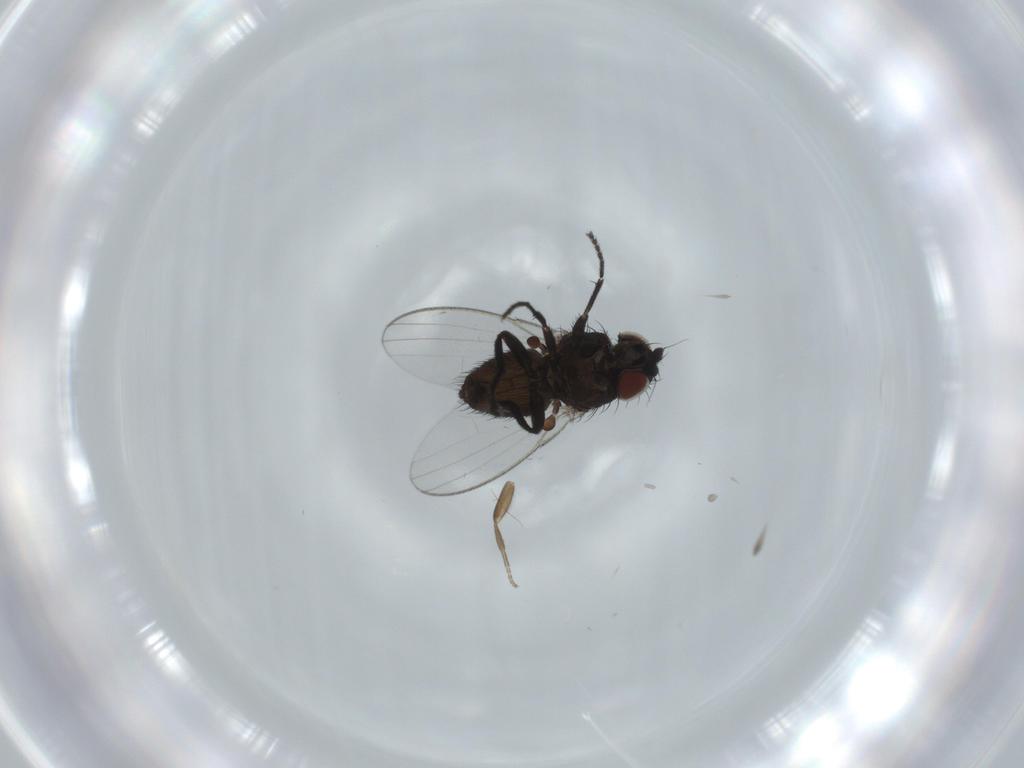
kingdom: Animalia
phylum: Arthropoda
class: Insecta
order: Diptera
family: Milichiidae
